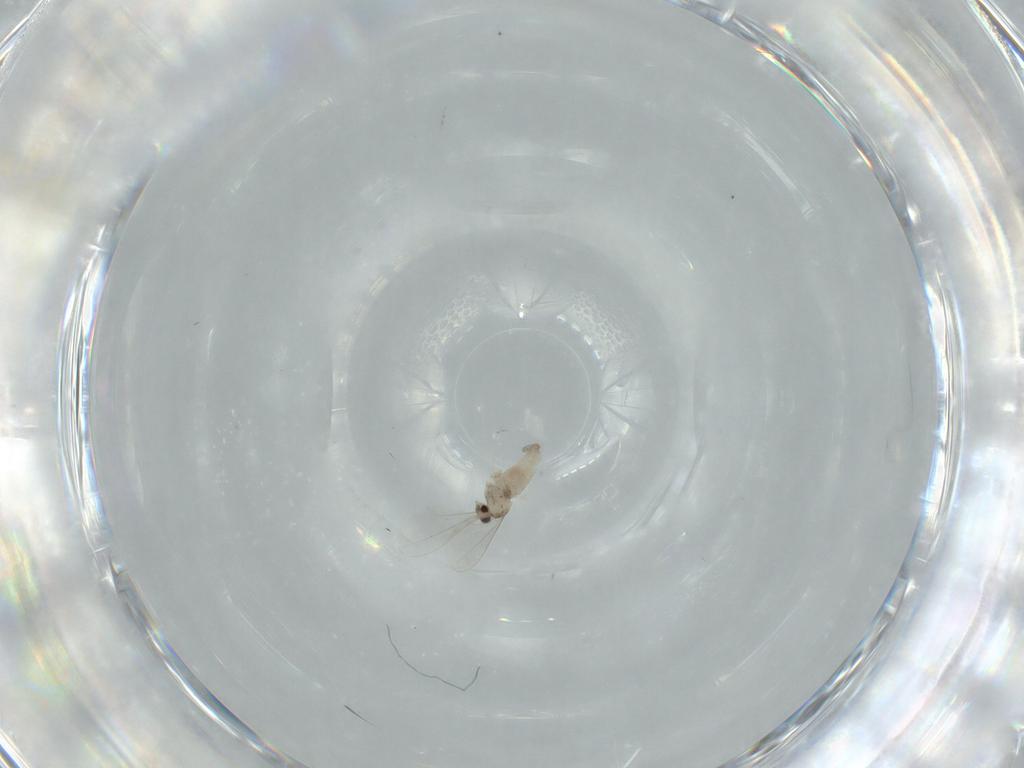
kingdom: Animalia
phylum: Arthropoda
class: Insecta
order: Diptera
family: Cecidomyiidae
